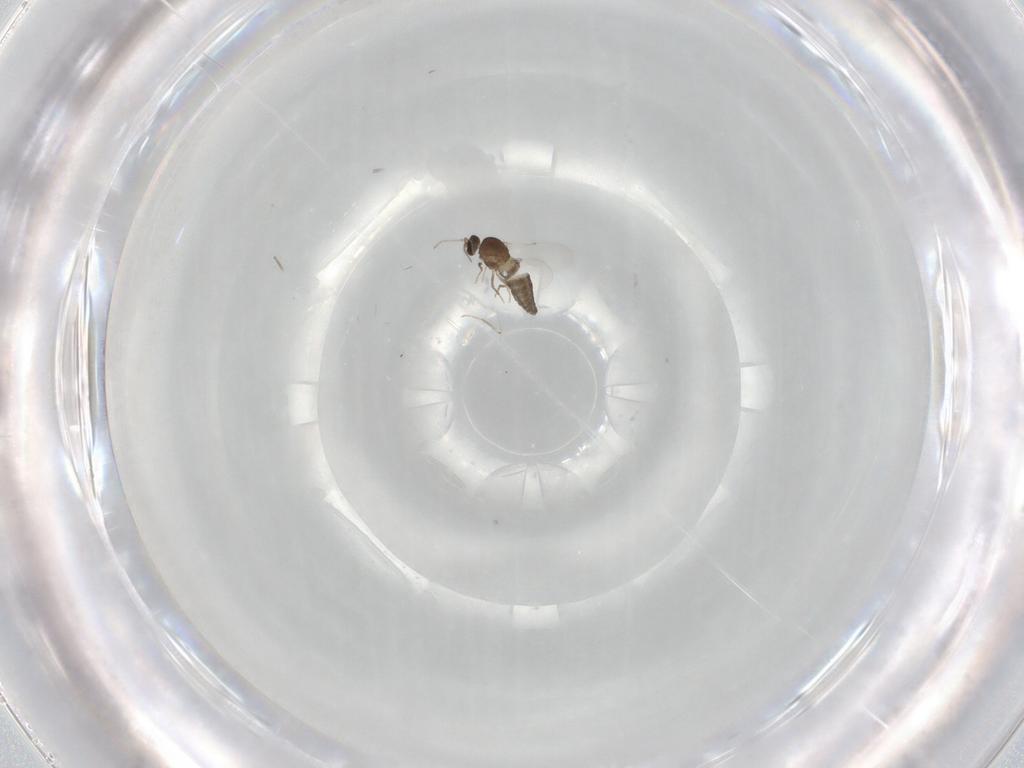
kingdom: Animalia
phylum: Arthropoda
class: Insecta
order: Diptera
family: Ceratopogonidae
